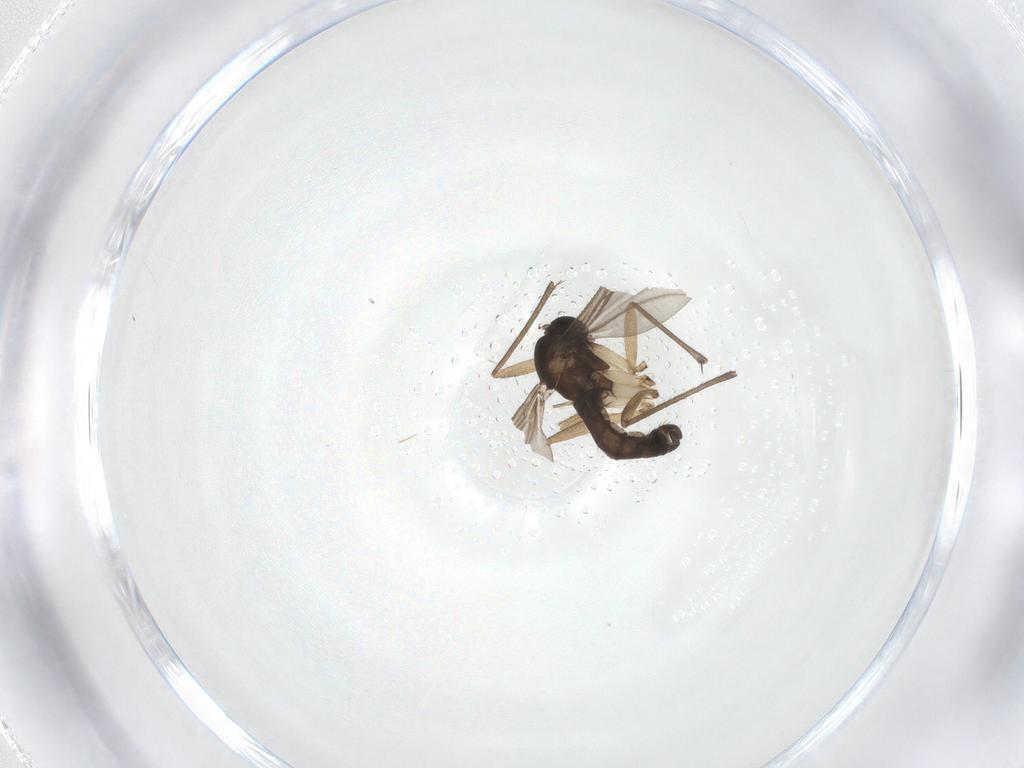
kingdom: Animalia
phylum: Arthropoda
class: Insecta
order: Diptera
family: Sciaridae
